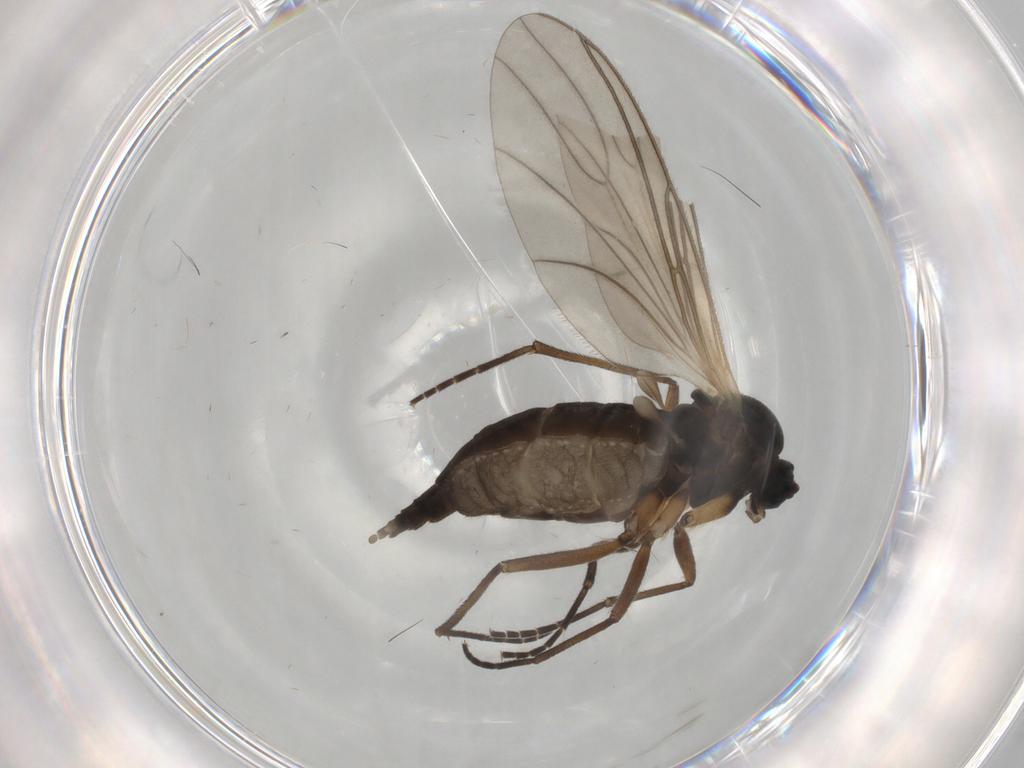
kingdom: Animalia
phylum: Arthropoda
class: Insecta
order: Diptera
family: Sciaridae
